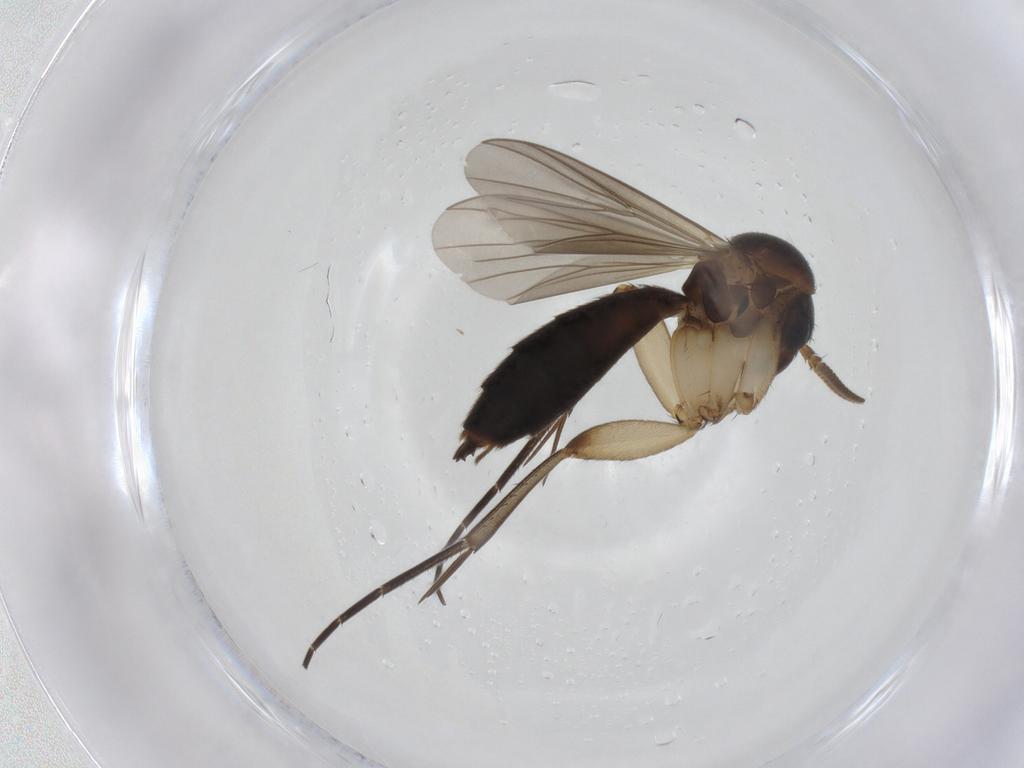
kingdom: Animalia
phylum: Arthropoda
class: Insecta
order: Diptera
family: Mycetophilidae
